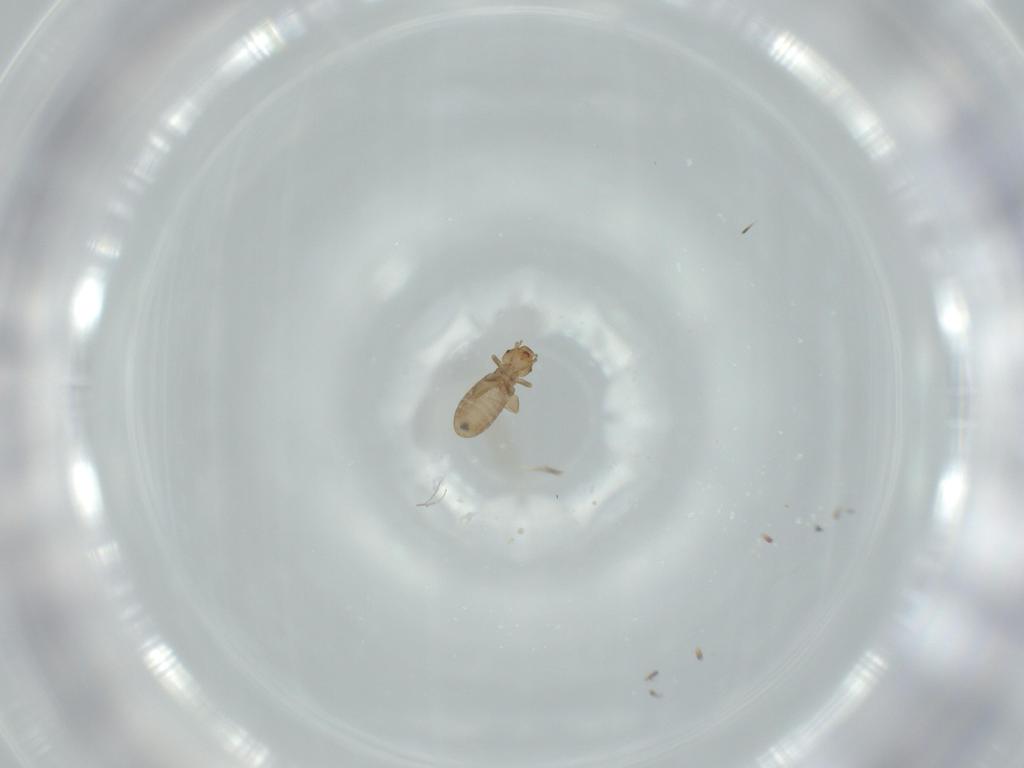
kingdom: Animalia
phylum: Arthropoda
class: Insecta
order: Psocodea
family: Liposcelididae
